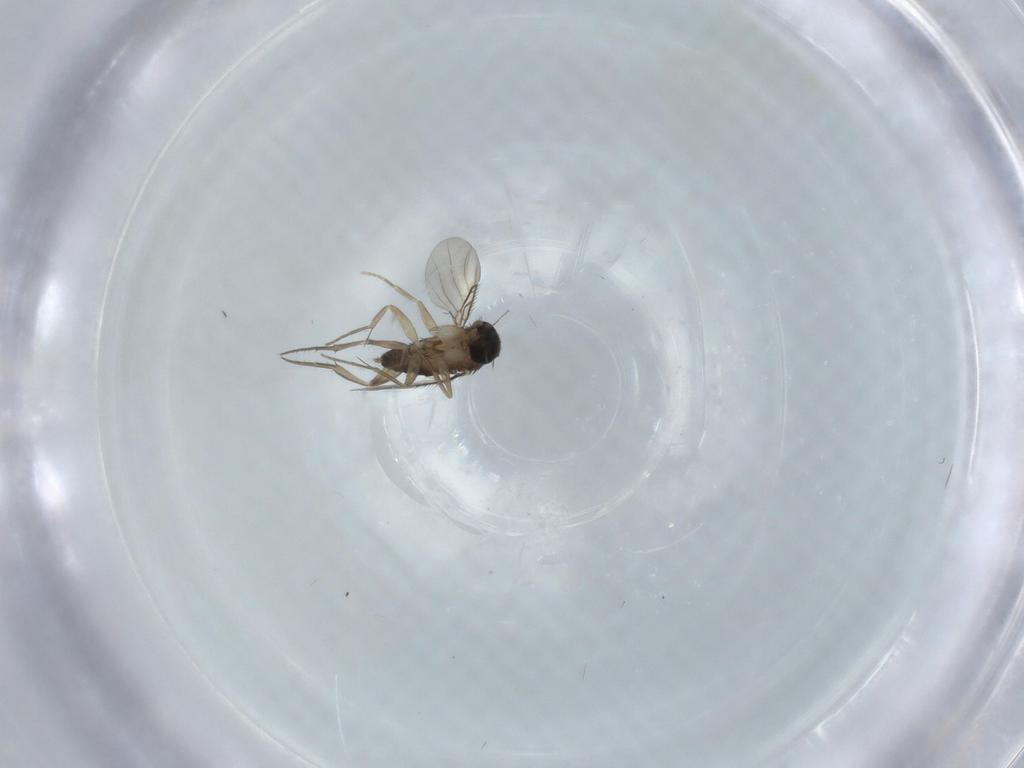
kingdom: Animalia
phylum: Arthropoda
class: Insecta
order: Diptera
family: Phoridae
